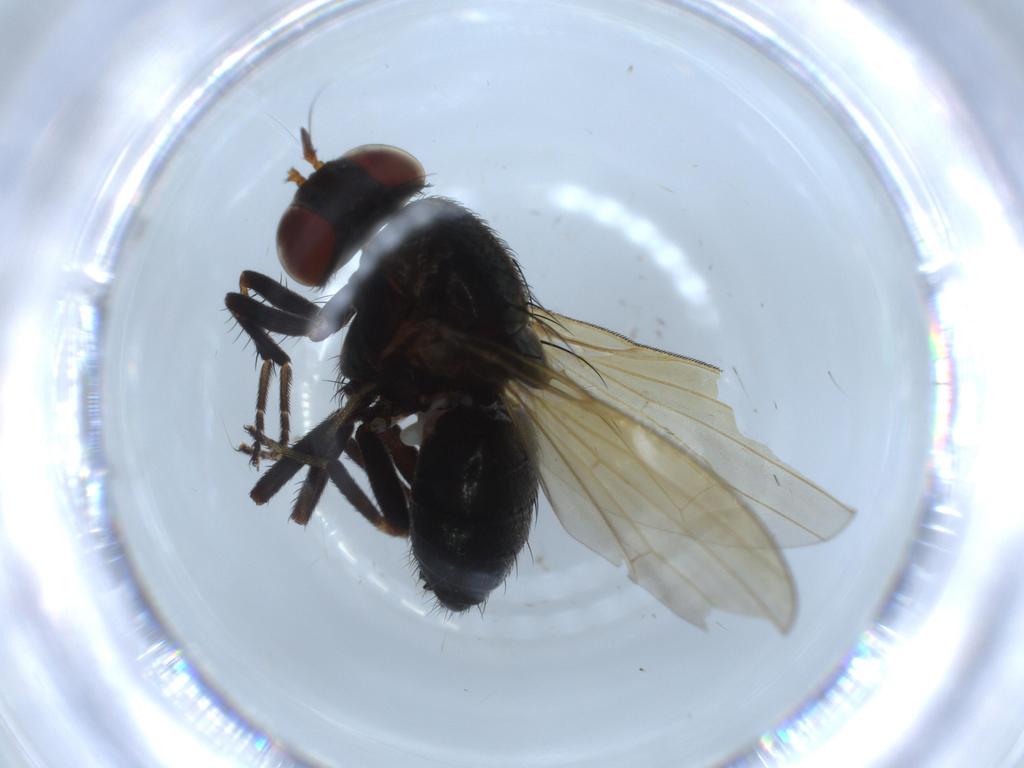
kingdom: Animalia
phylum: Arthropoda
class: Insecta
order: Diptera
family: Lauxaniidae
